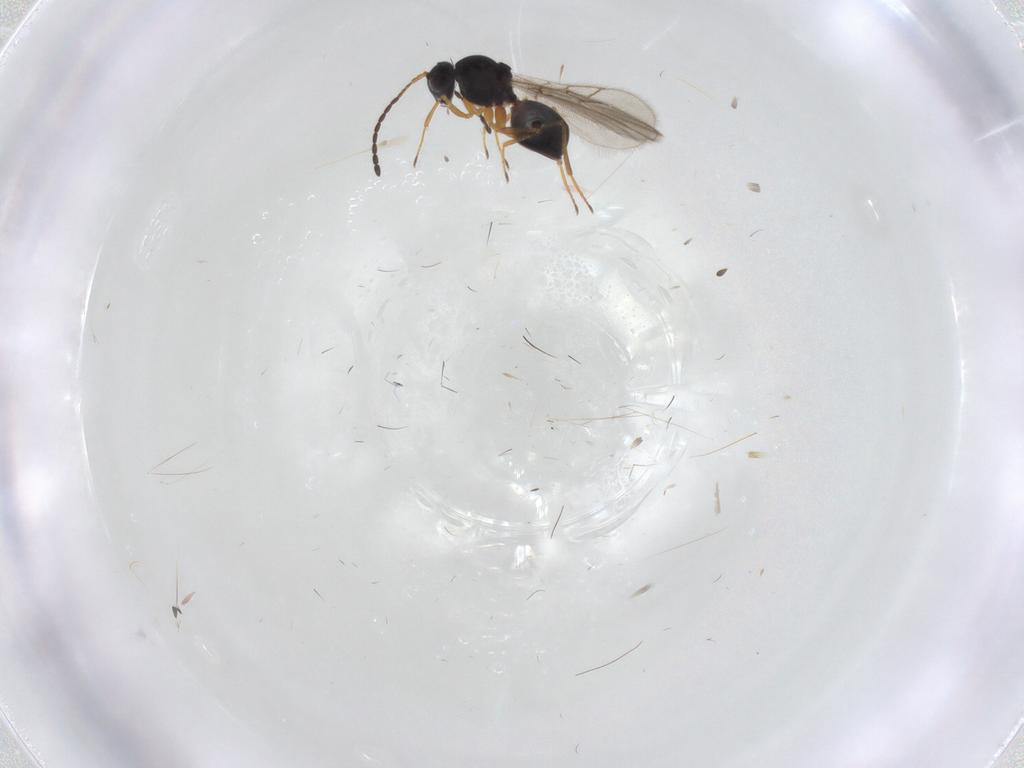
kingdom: Animalia
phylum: Arthropoda
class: Insecta
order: Hymenoptera
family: Figitidae
